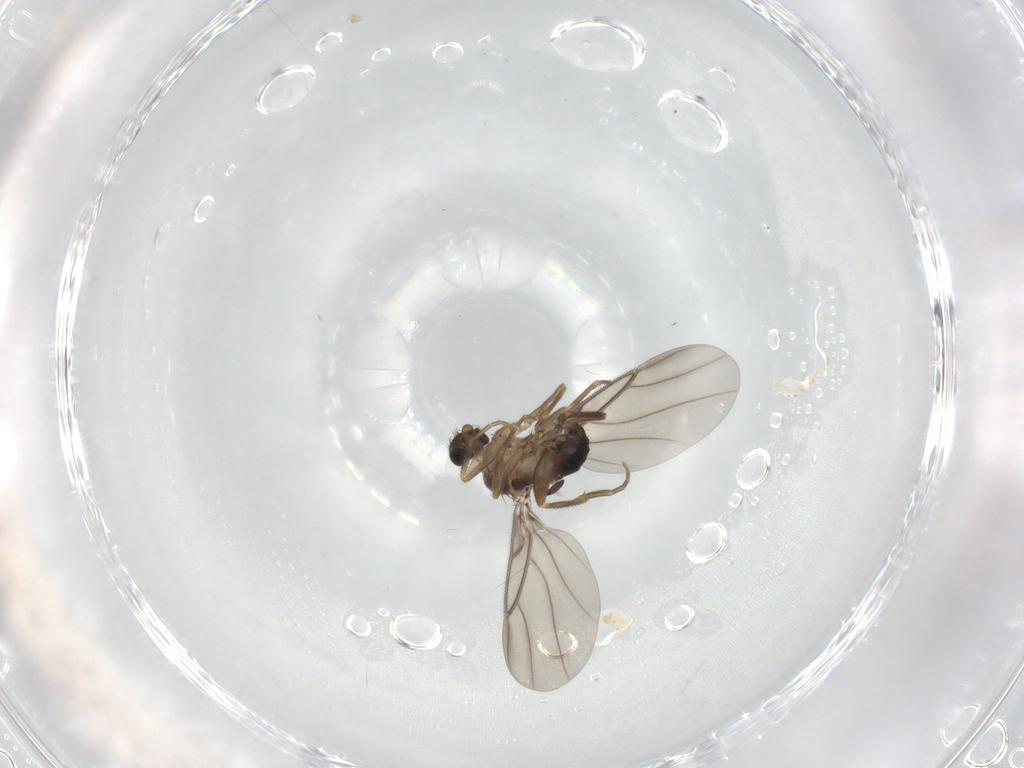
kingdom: Animalia
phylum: Arthropoda
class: Insecta
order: Diptera
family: Phoridae
